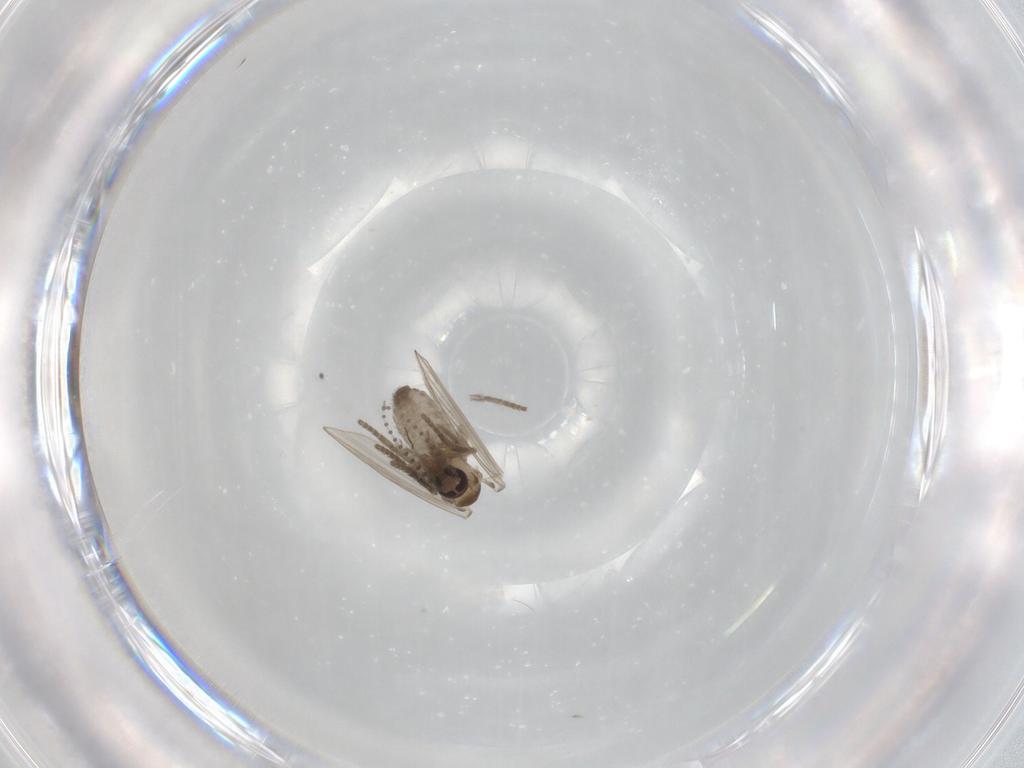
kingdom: Animalia
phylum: Arthropoda
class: Insecta
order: Diptera
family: Psychodidae
